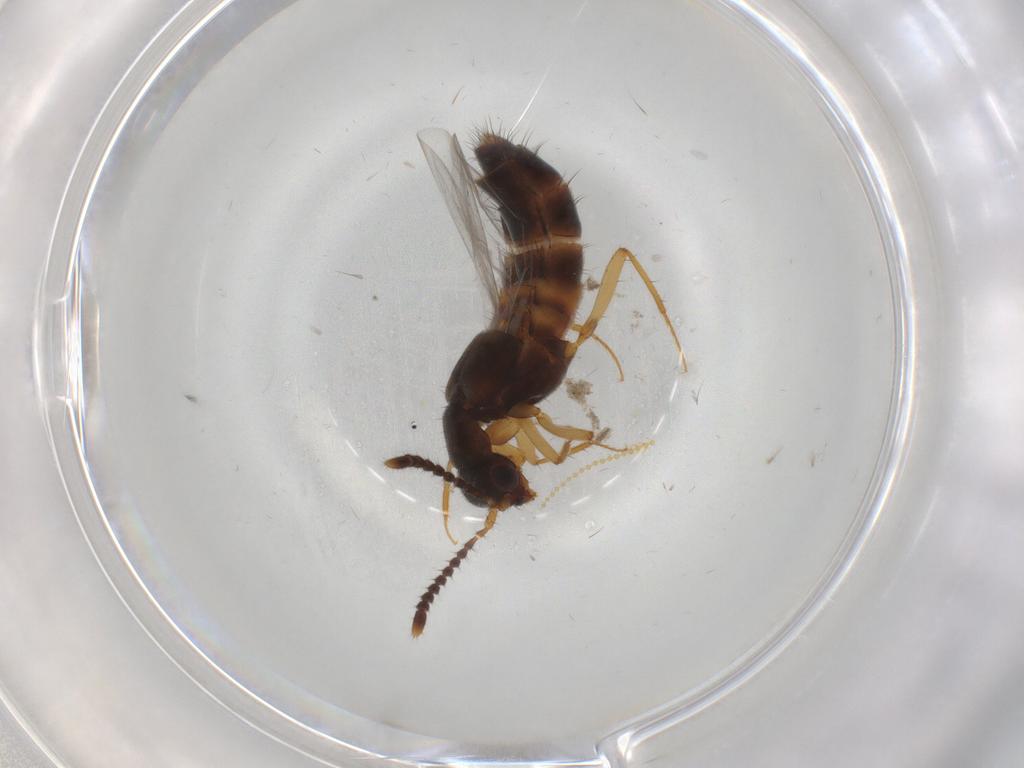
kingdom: Animalia
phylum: Arthropoda
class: Insecta
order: Coleoptera
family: Staphylinidae
